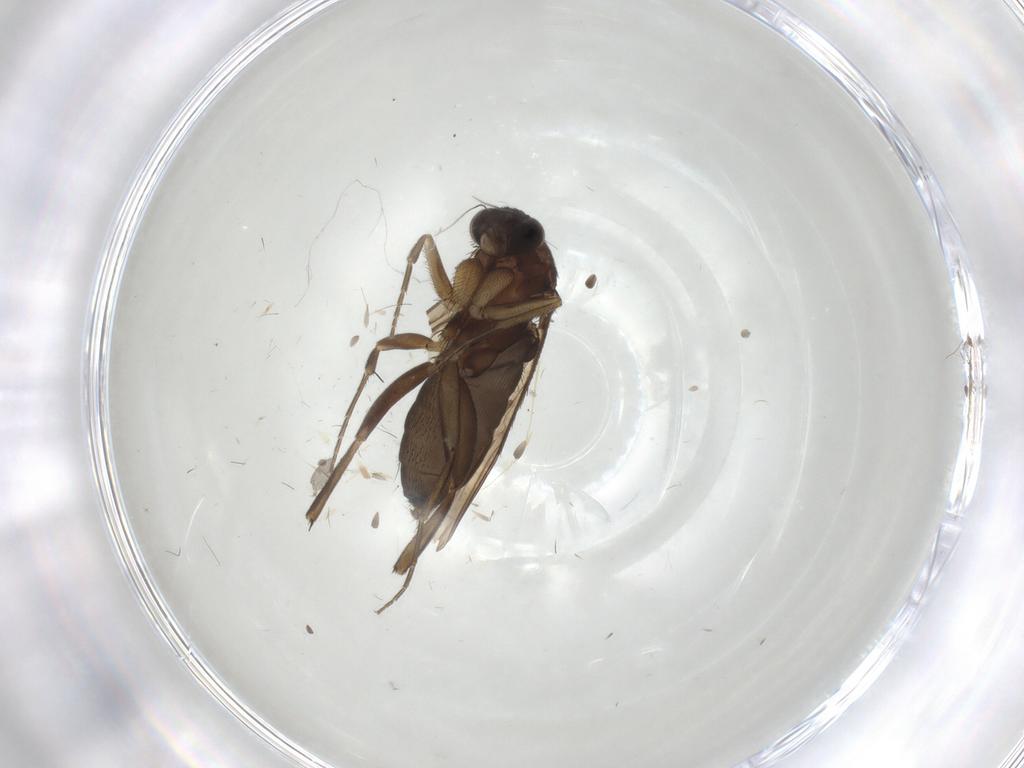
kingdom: Animalia
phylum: Arthropoda
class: Insecta
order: Diptera
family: Phoridae
